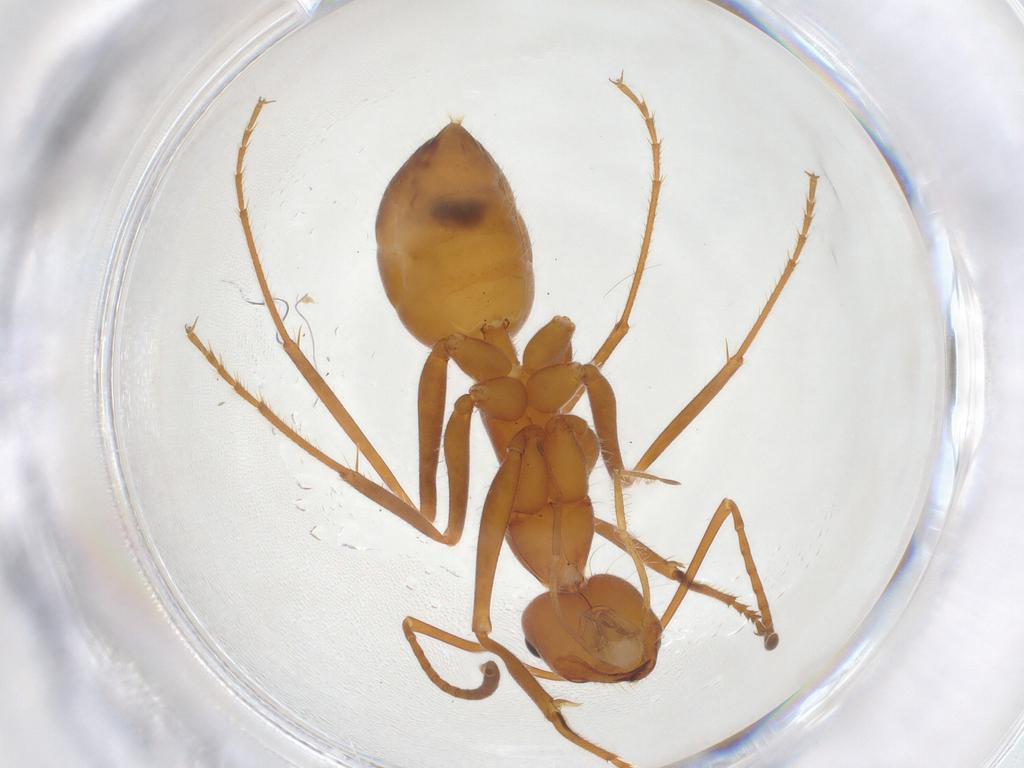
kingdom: Animalia
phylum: Arthropoda
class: Insecta
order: Hymenoptera
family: Formicidae
